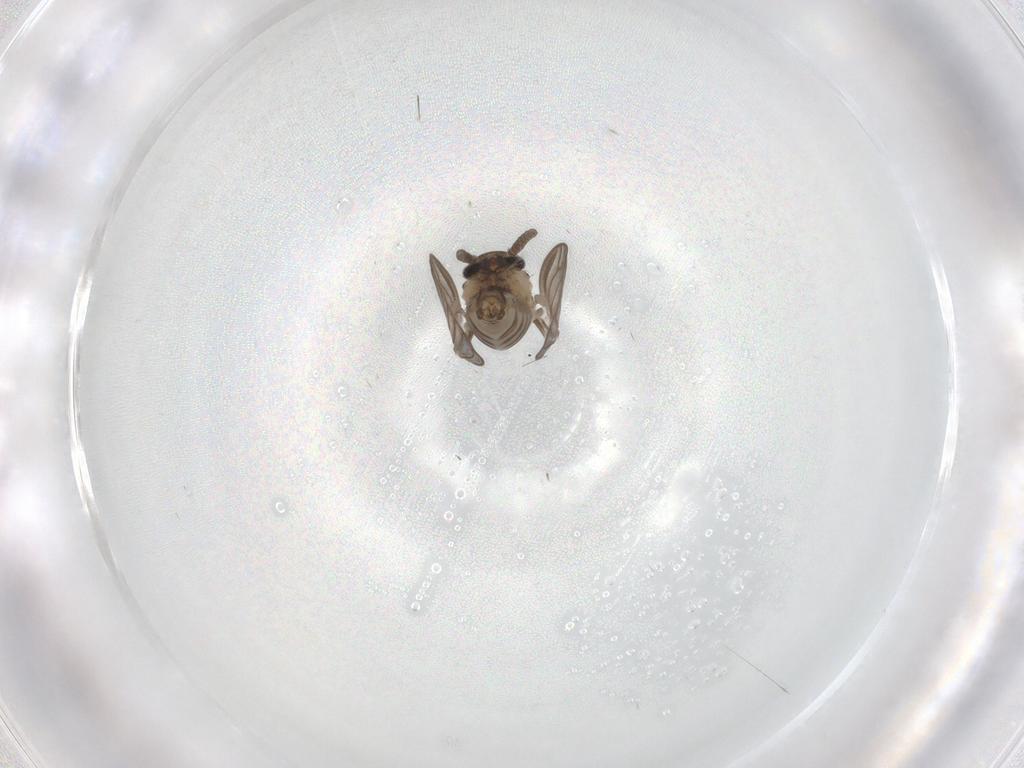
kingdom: Animalia
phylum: Arthropoda
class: Insecta
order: Diptera
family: Psychodidae
